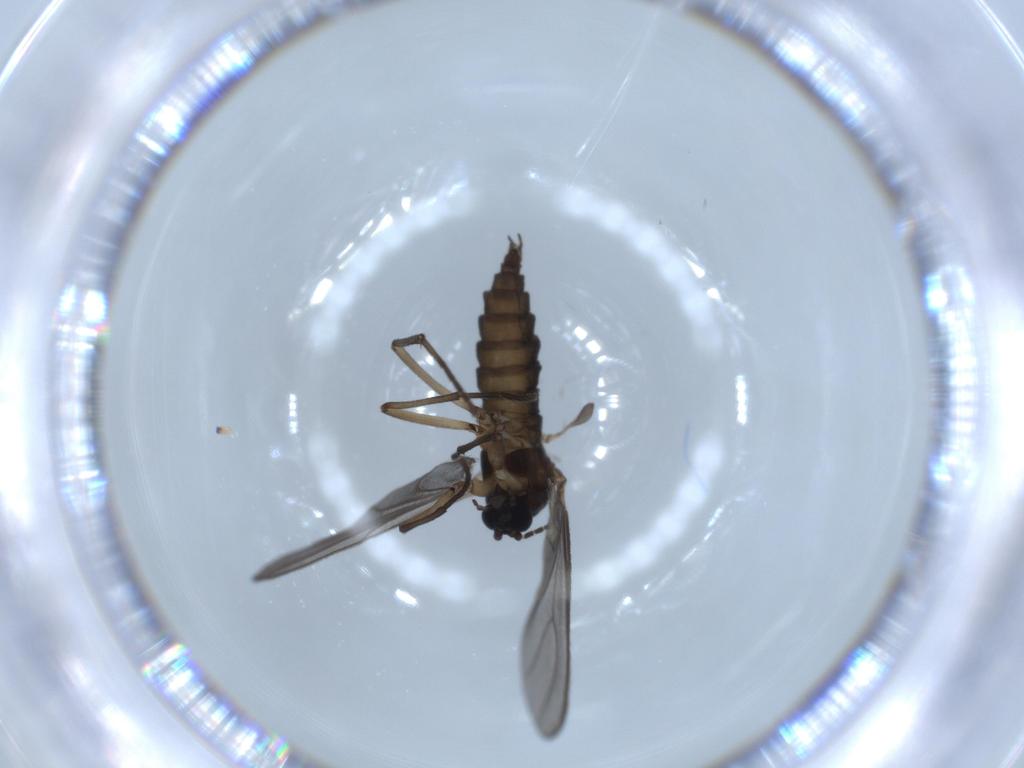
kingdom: Animalia
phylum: Arthropoda
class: Insecta
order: Diptera
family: Sciaridae
